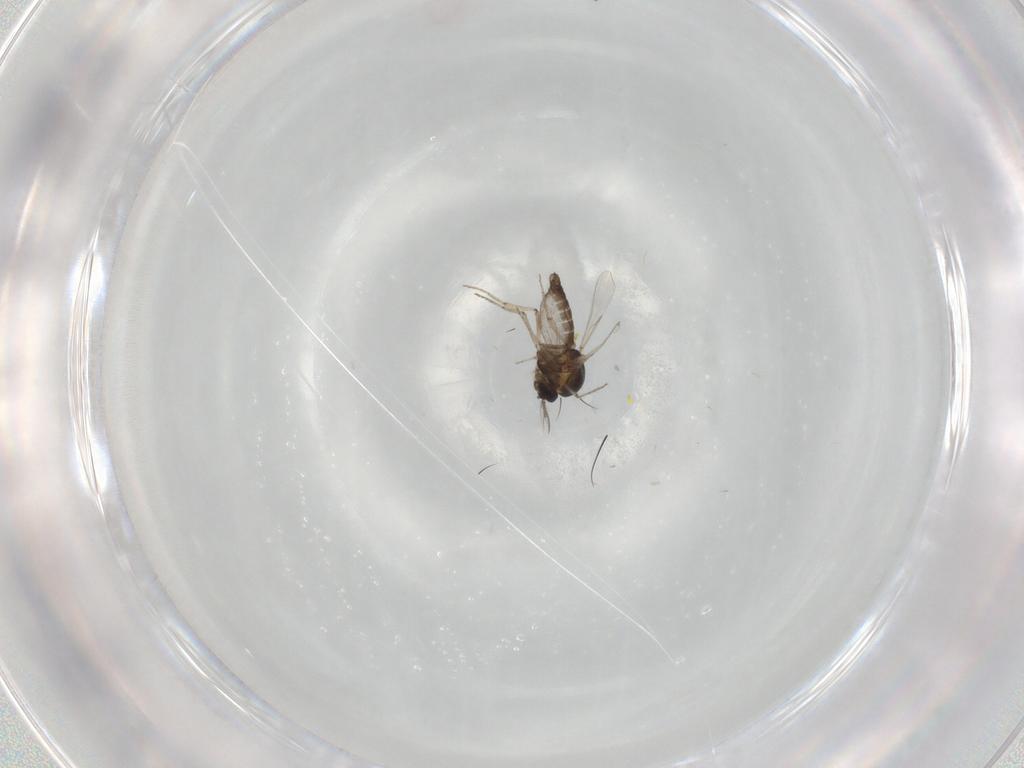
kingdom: Animalia
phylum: Arthropoda
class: Insecta
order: Diptera
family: Ceratopogonidae
